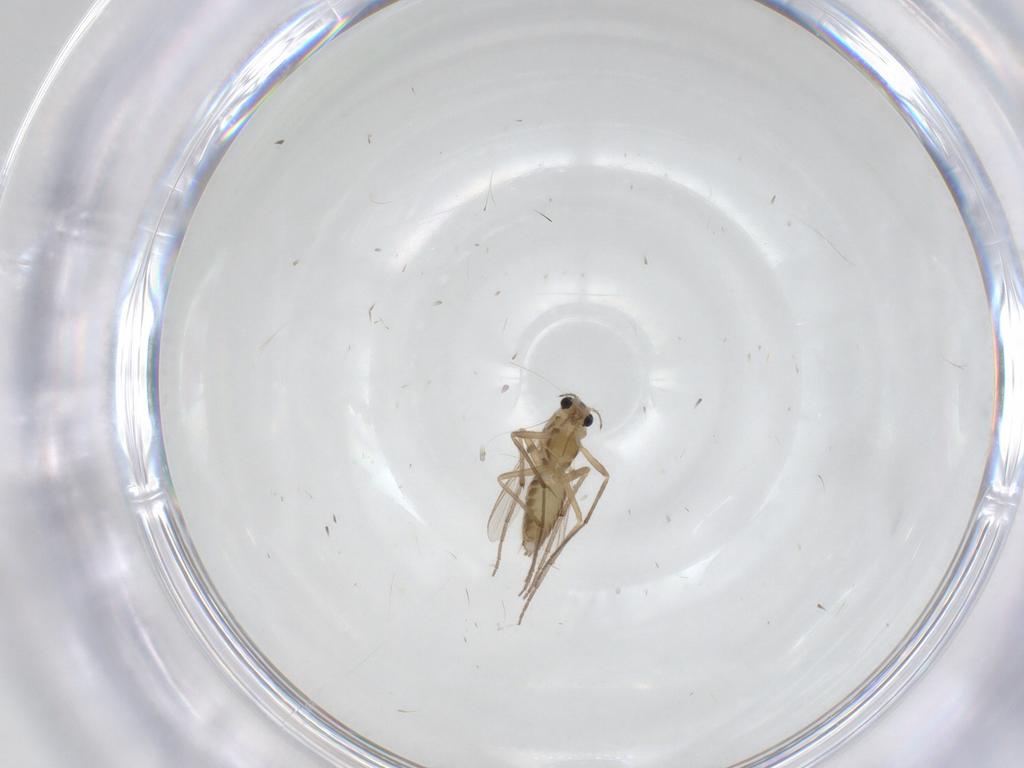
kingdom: Animalia
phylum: Arthropoda
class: Insecta
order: Diptera
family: Chironomidae
